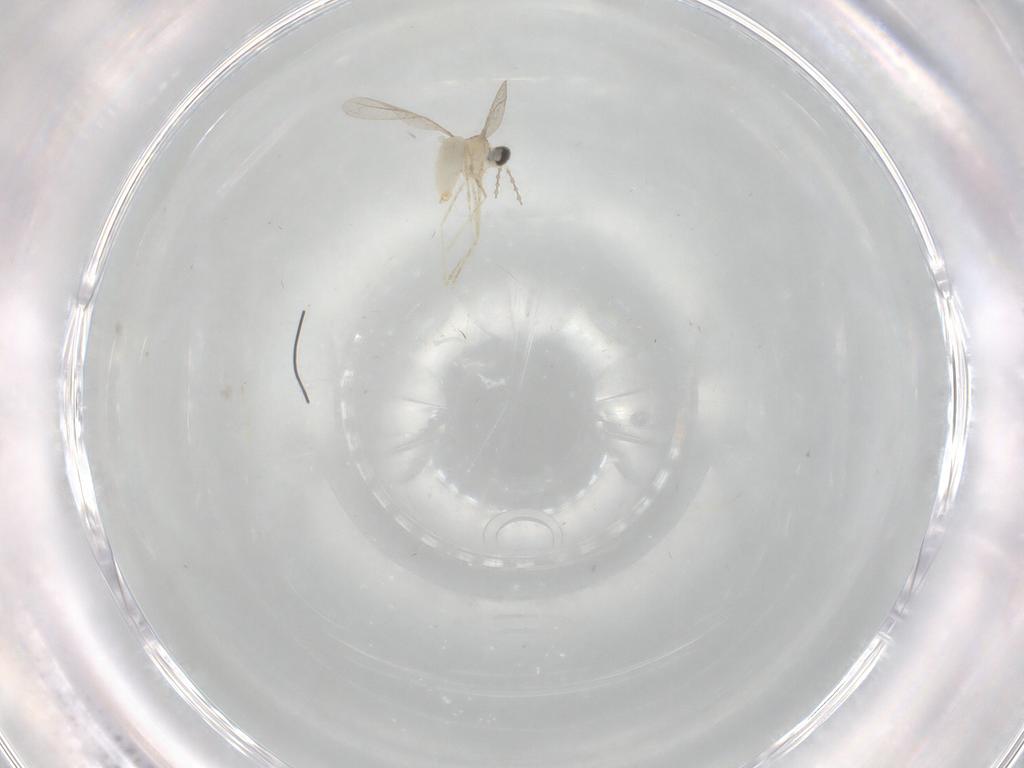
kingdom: Animalia
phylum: Arthropoda
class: Insecta
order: Diptera
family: Cecidomyiidae
